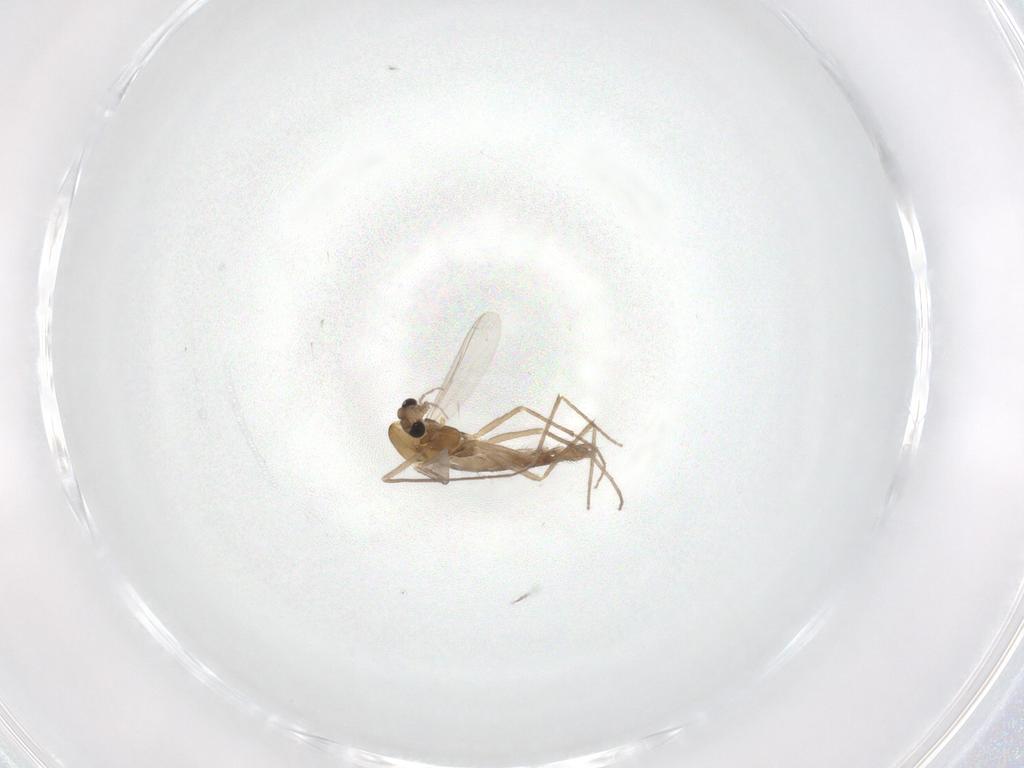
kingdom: Animalia
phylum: Arthropoda
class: Insecta
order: Diptera
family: Chironomidae
